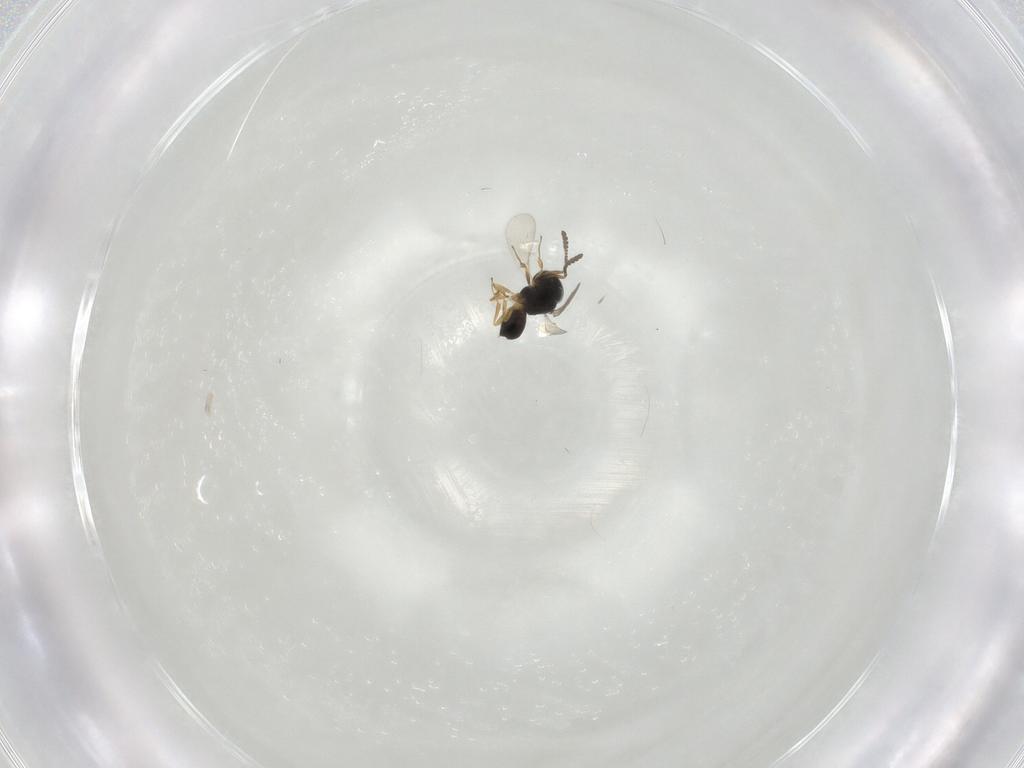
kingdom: Animalia
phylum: Arthropoda
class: Insecta
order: Hymenoptera
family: Scelionidae
